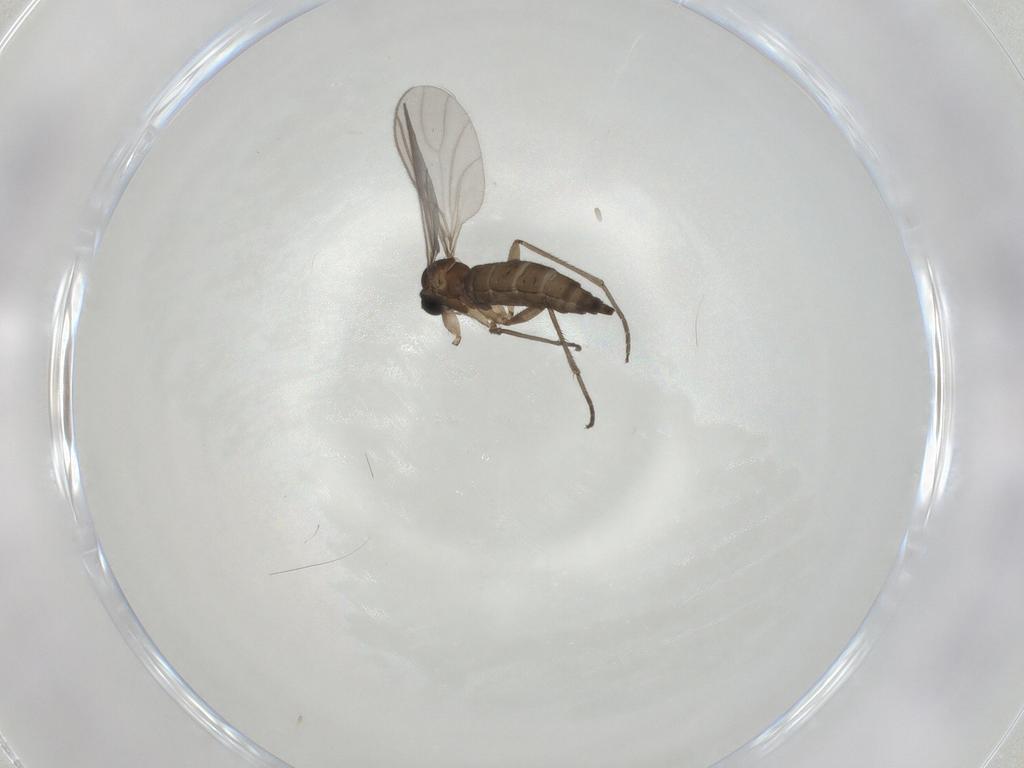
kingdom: Animalia
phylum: Arthropoda
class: Insecta
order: Diptera
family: Sciaridae
